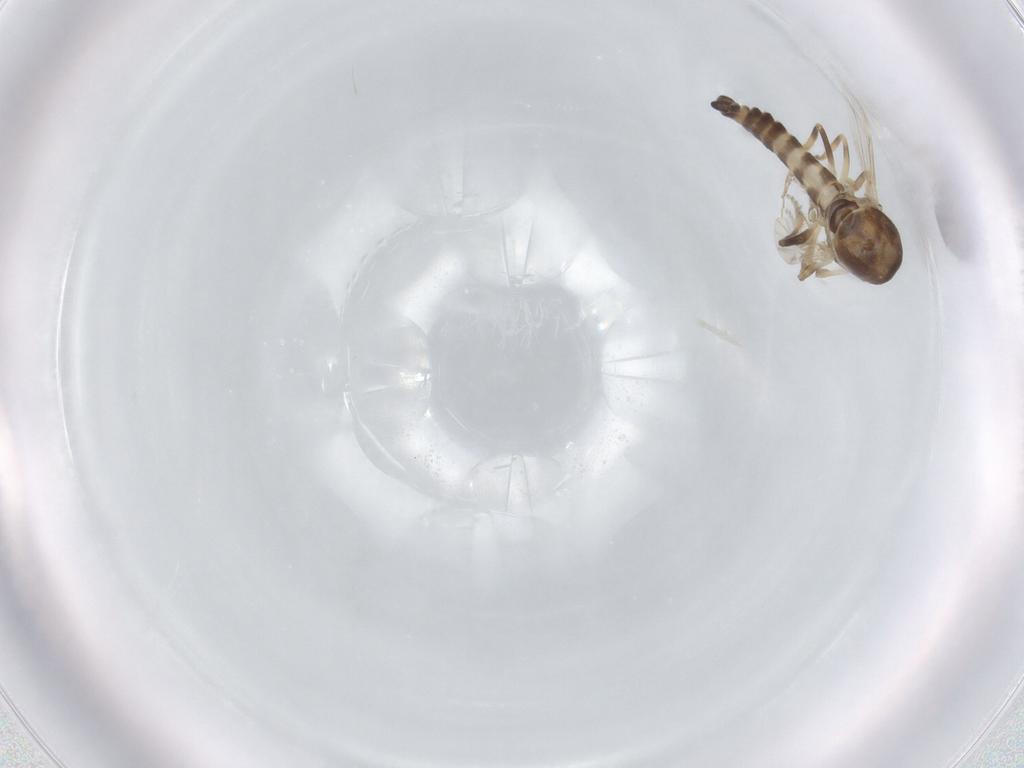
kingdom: Animalia
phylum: Arthropoda
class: Insecta
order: Diptera
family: Ceratopogonidae
